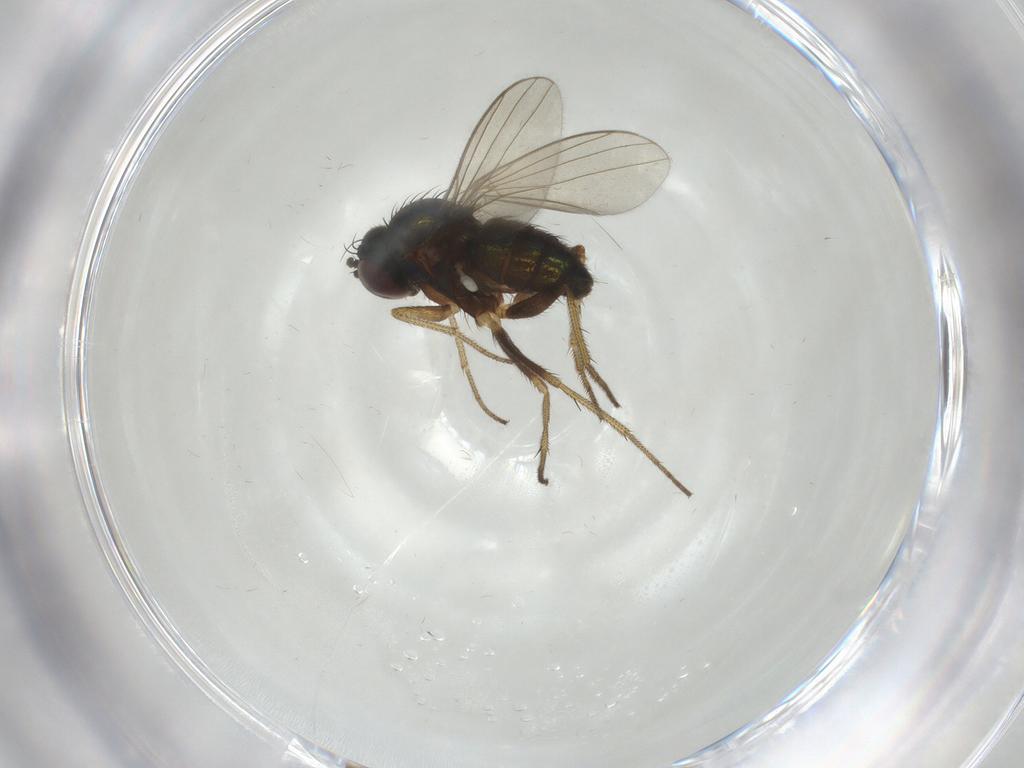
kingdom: Animalia
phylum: Arthropoda
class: Insecta
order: Diptera
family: Dolichopodidae
